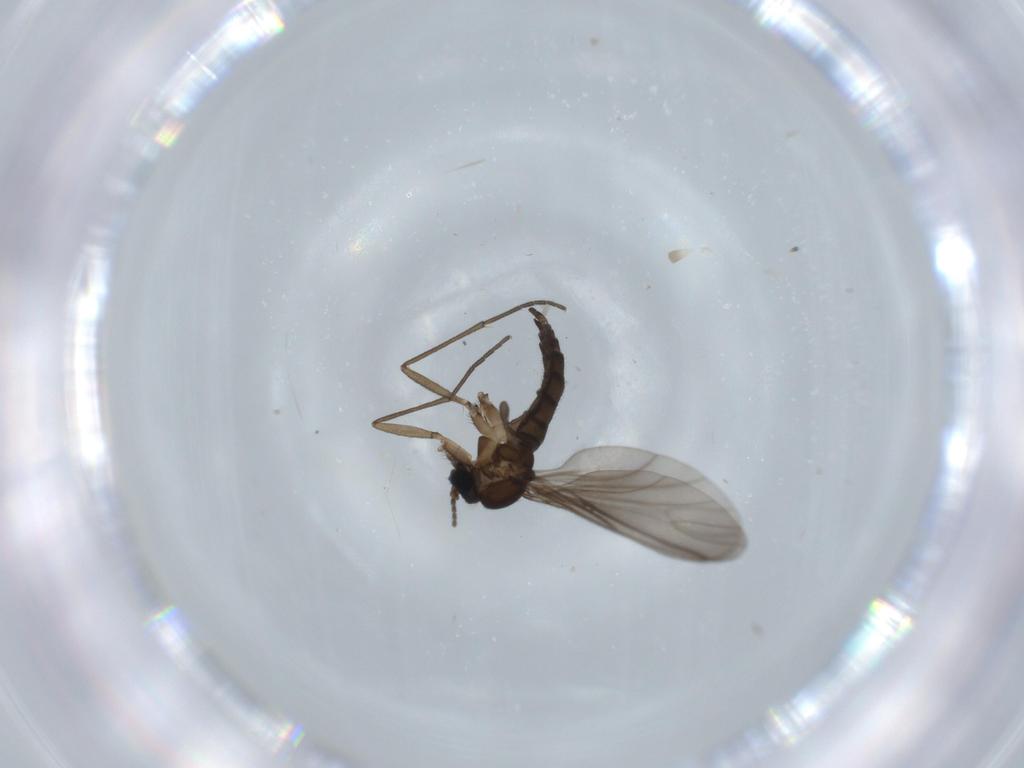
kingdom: Animalia
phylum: Arthropoda
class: Insecta
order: Diptera
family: Sciaridae
